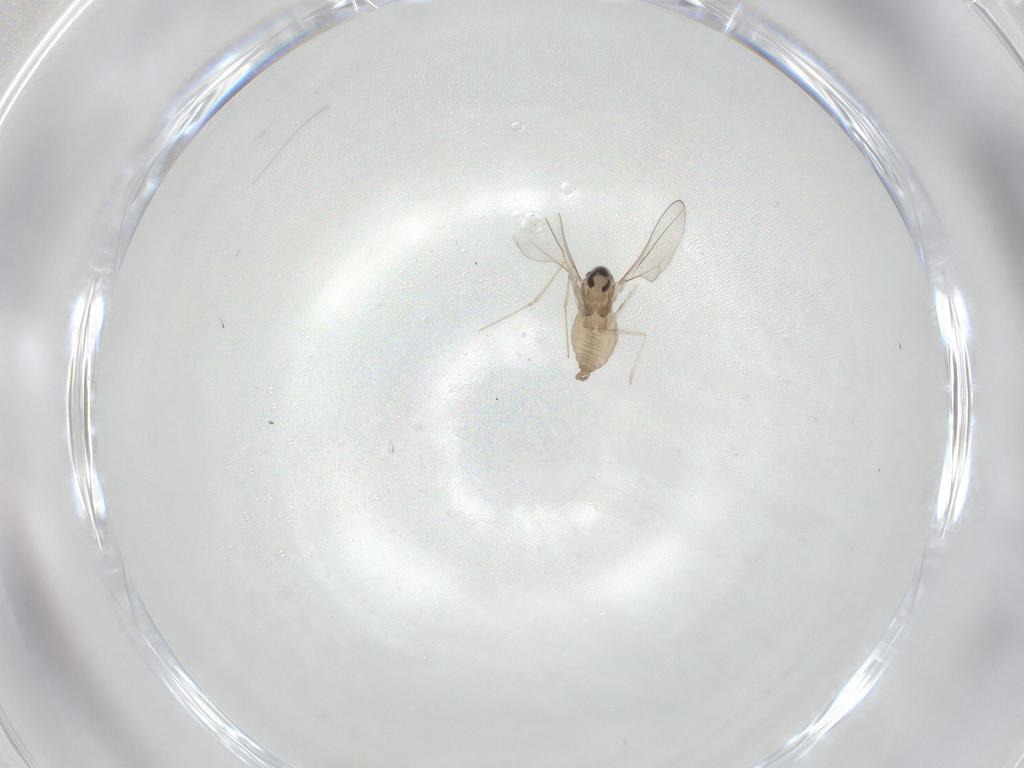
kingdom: Animalia
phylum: Arthropoda
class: Insecta
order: Diptera
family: Cecidomyiidae
